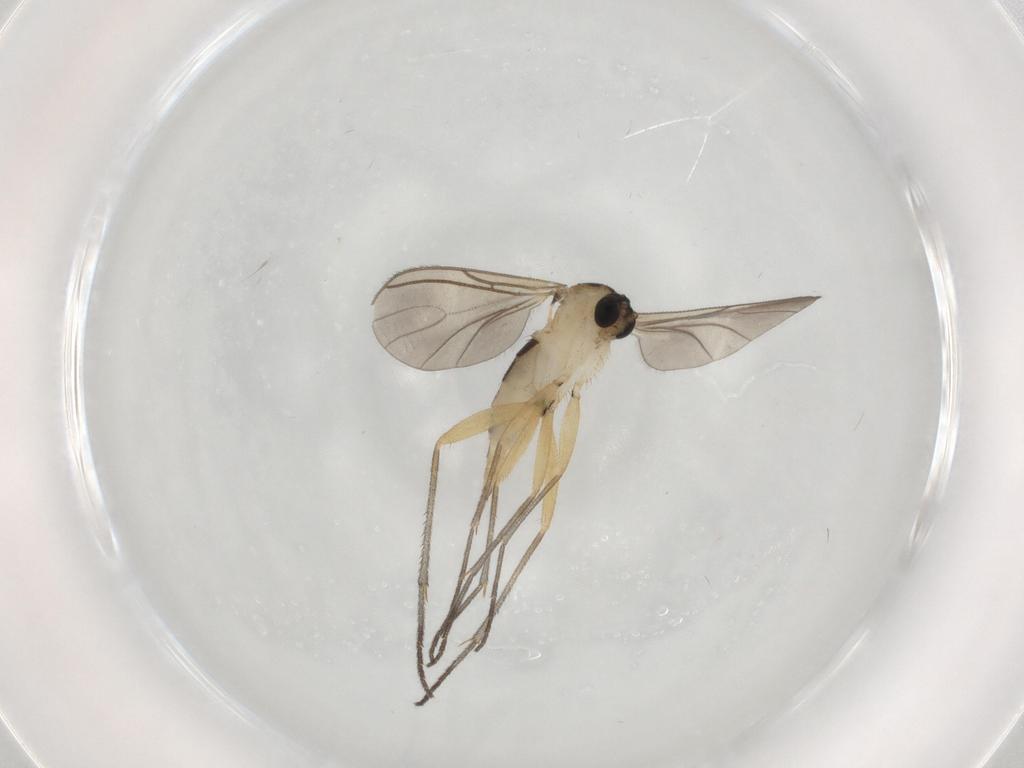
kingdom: Animalia
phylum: Arthropoda
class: Insecta
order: Diptera
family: Sciaridae
